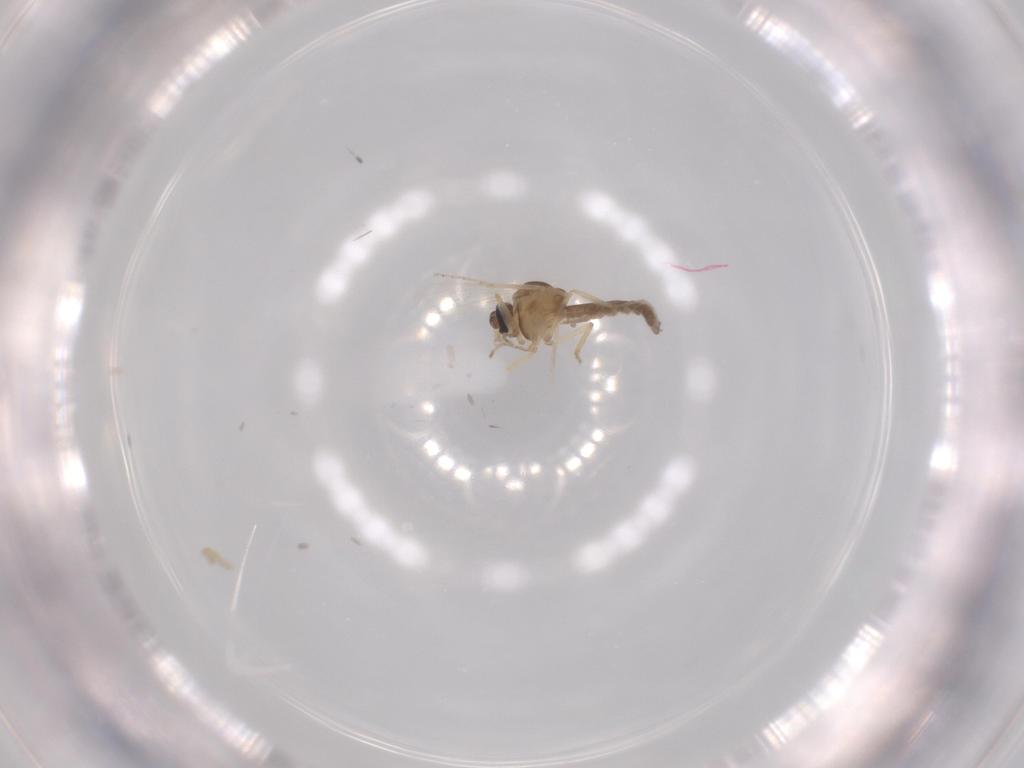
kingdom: Animalia
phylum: Arthropoda
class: Insecta
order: Diptera
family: Ceratopogonidae
